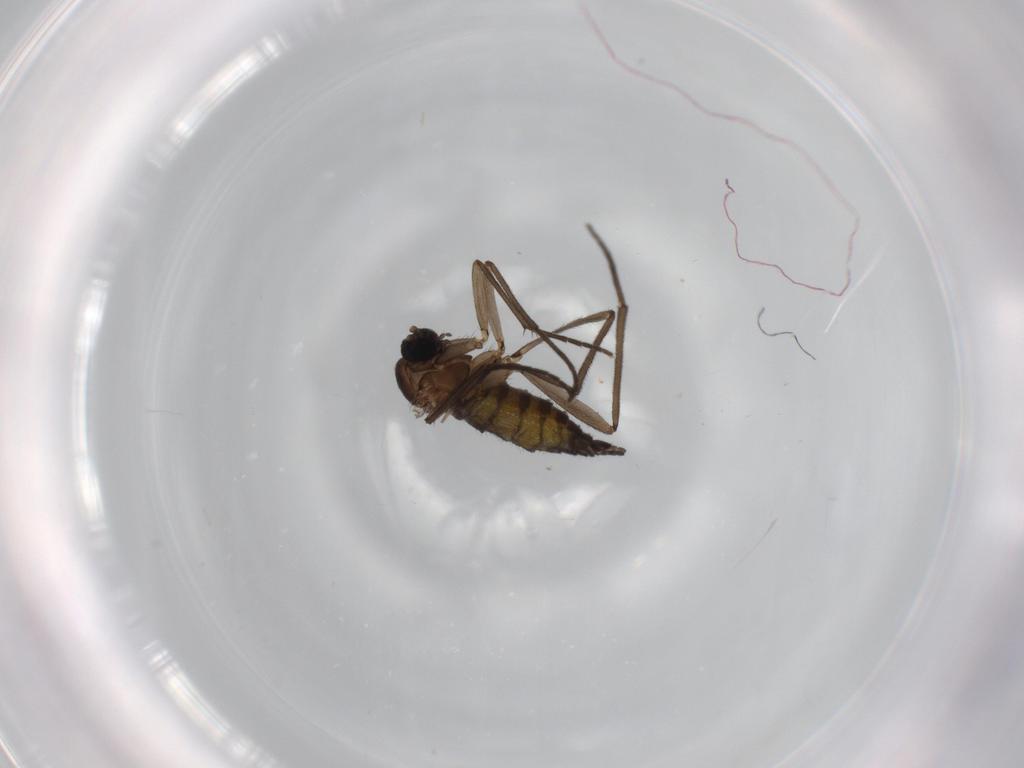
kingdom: Animalia
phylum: Arthropoda
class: Insecta
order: Diptera
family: Sciaridae
